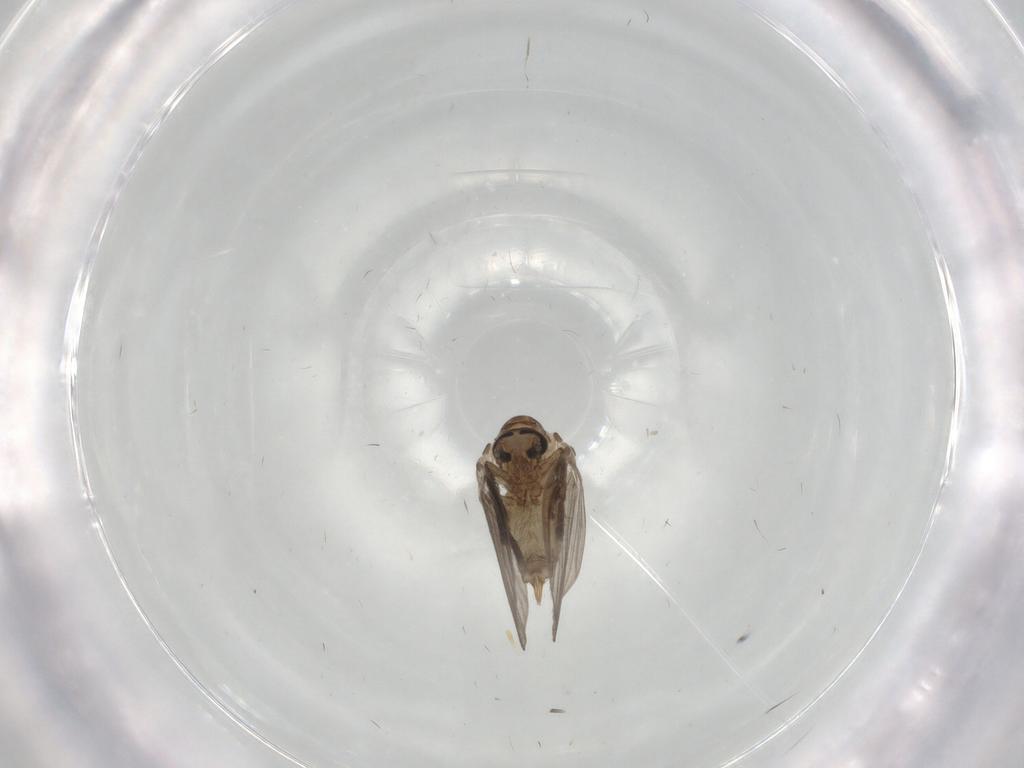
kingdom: Animalia
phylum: Arthropoda
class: Insecta
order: Diptera
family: Psychodidae
